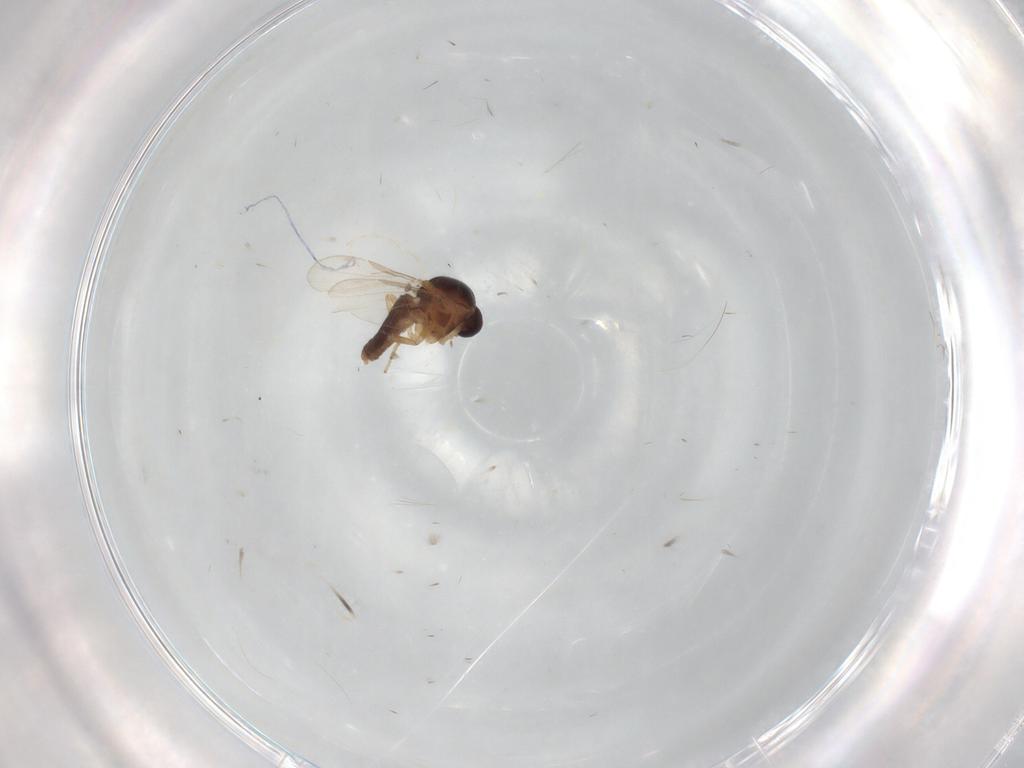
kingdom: Animalia
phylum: Arthropoda
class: Insecta
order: Diptera
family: Ceratopogonidae
